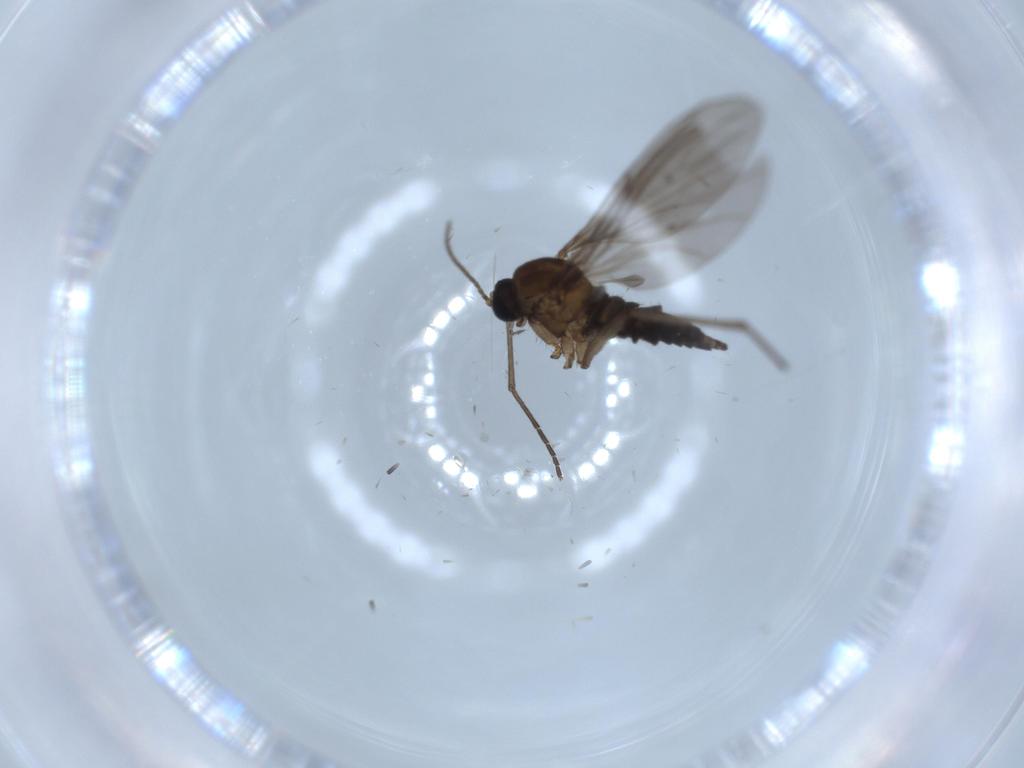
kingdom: Animalia
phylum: Arthropoda
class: Insecta
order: Diptera
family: Sciaridae
